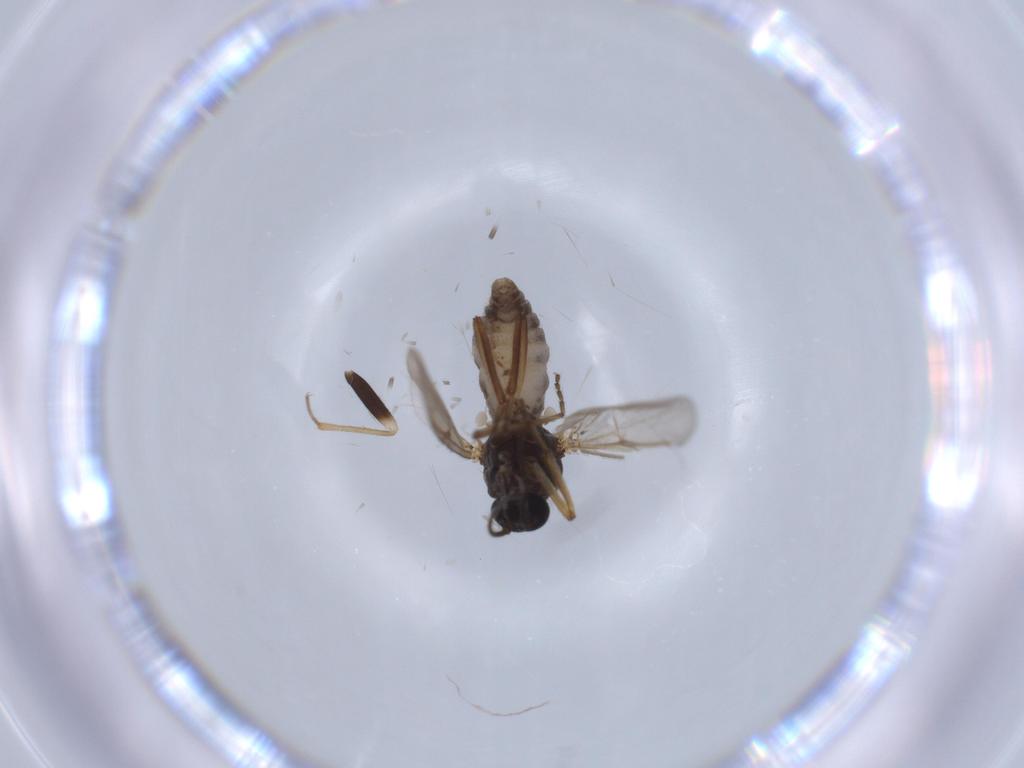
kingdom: Animalia
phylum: Arthropoda
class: Insecta
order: Diptera
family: Ceratopogonidae
